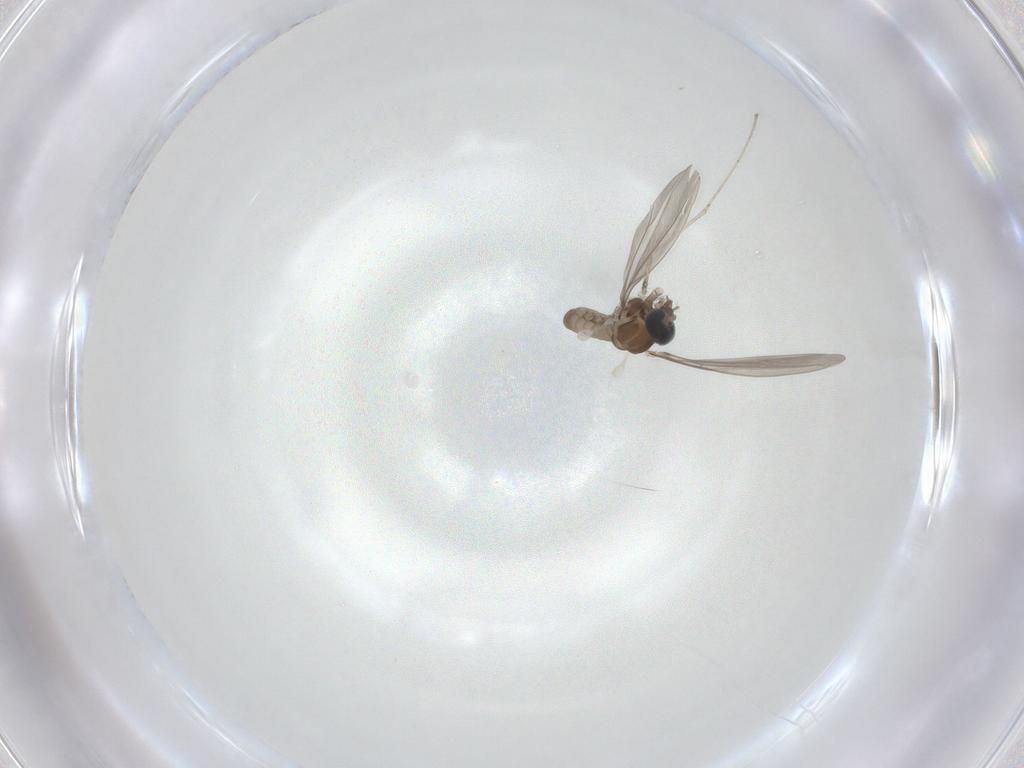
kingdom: Animalia
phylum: Arthropoda
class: Insecta
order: Diptera
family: Cecidomyiidae
